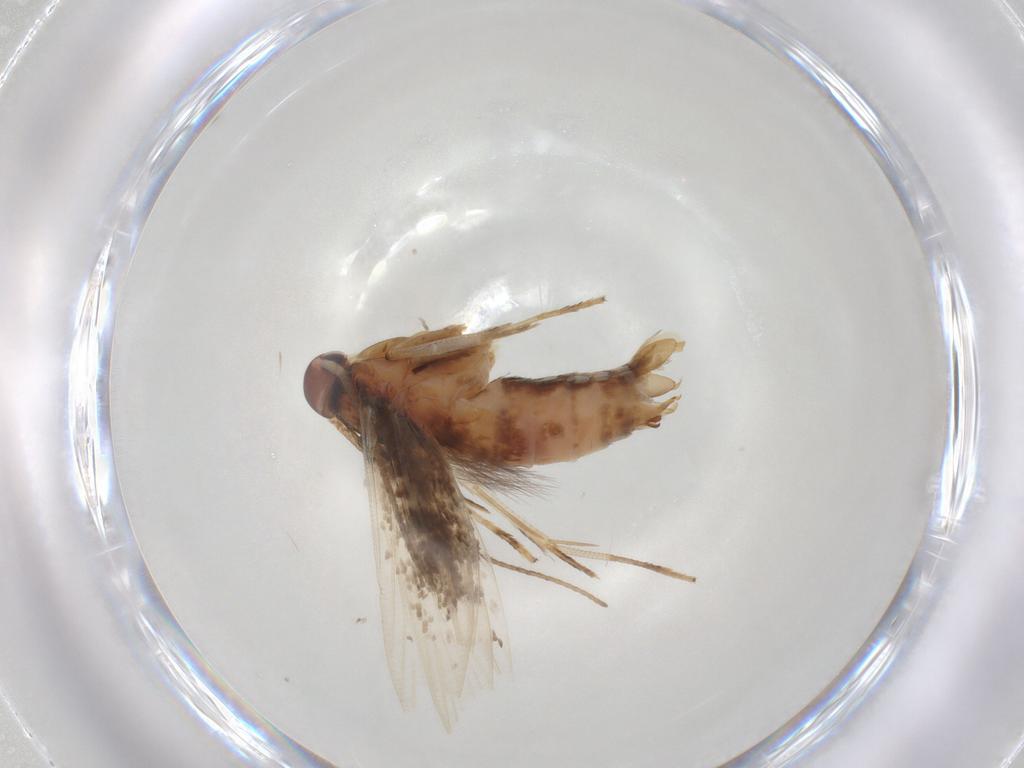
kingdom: Animalia
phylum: Arthropoda
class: Insecta
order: Lepidoptera
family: Cosmopterigidae
